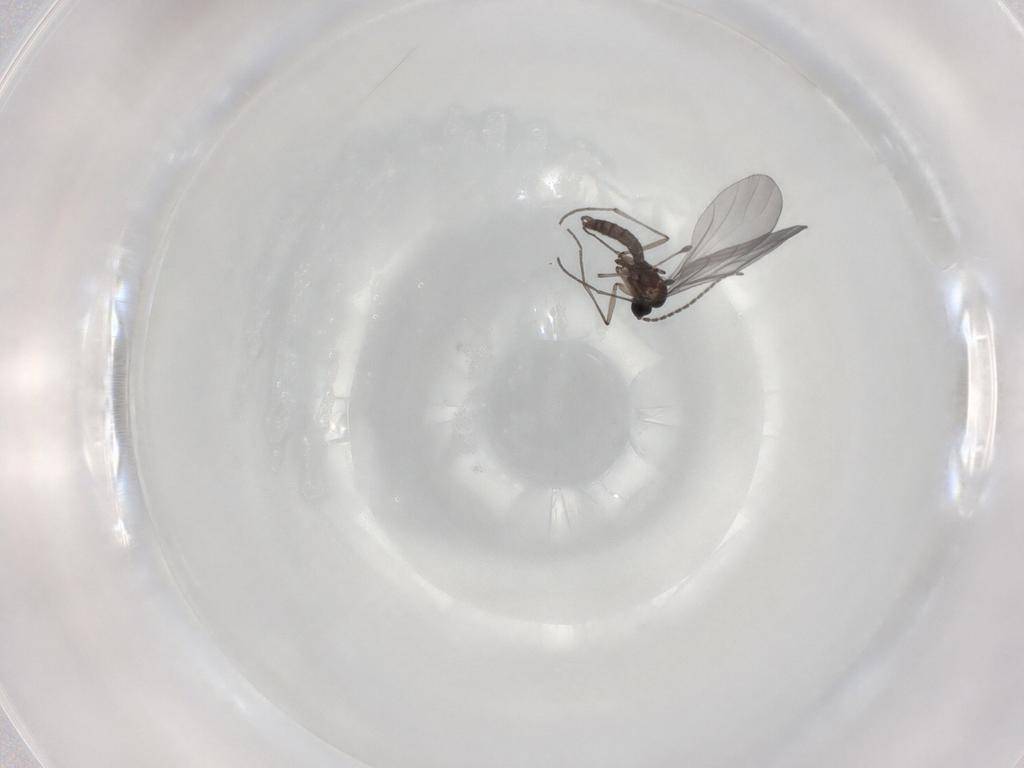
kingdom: Animalia
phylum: Arthropoda
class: Insecta
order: Diptera
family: Sciaridae
